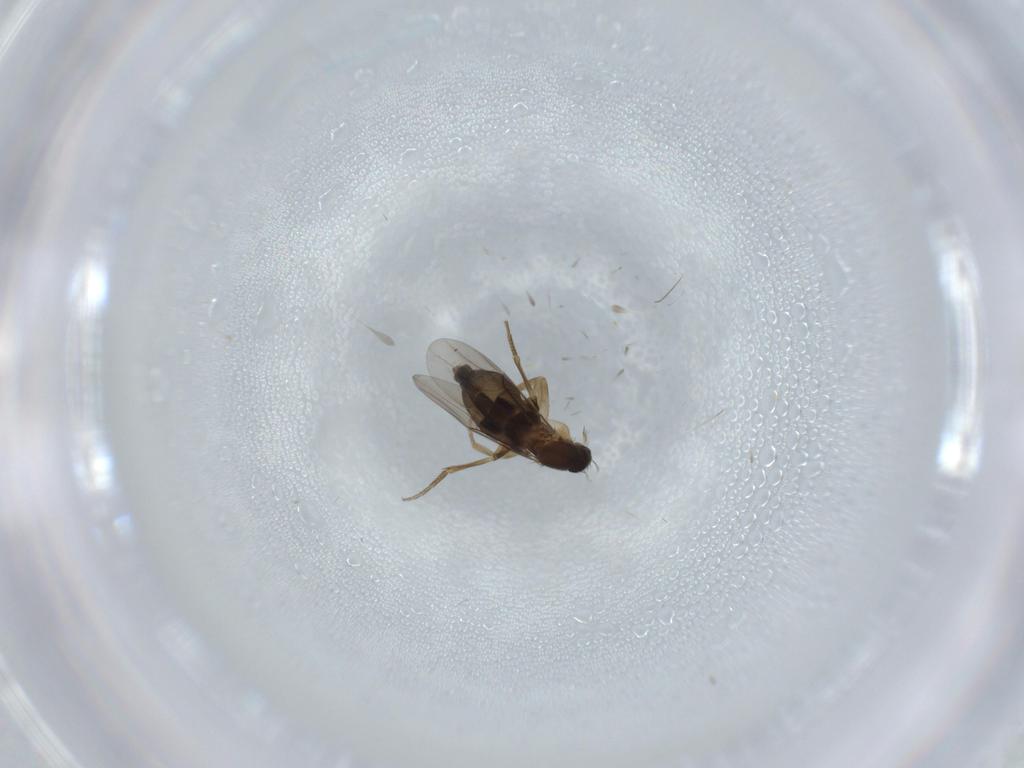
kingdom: Animalia
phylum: Arthropoda
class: Insecta
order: Diptera
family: Phoridae
